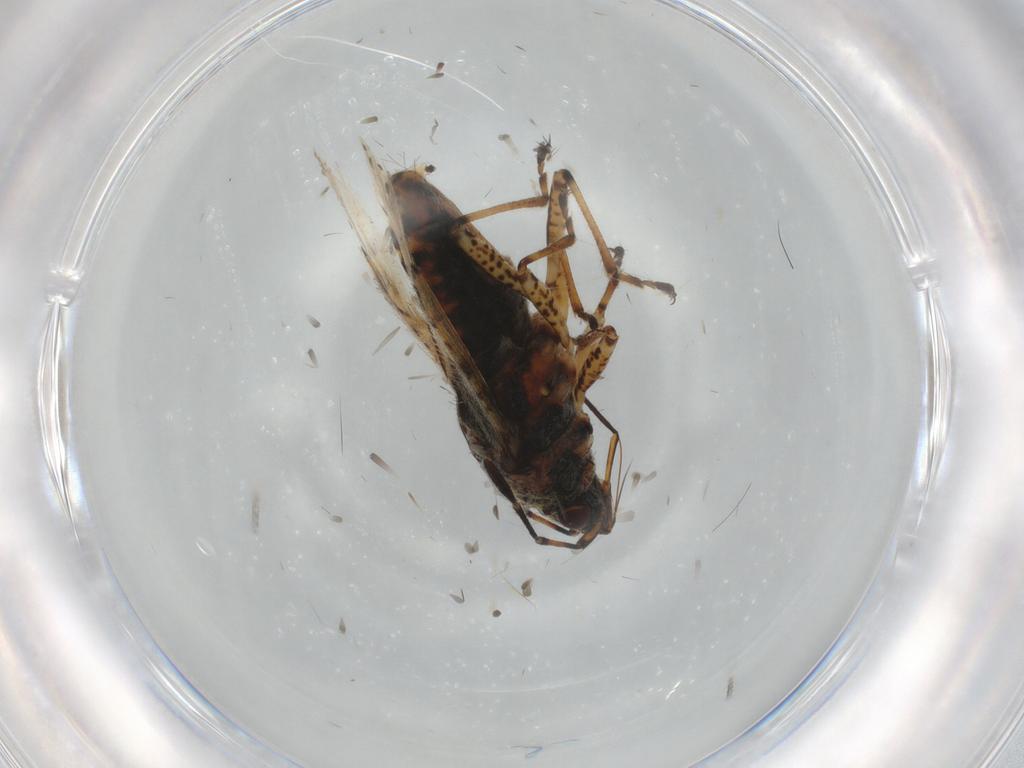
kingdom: Animalia
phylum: Arthropoda
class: Insecta
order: Hemiptera
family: Lygaeidae
